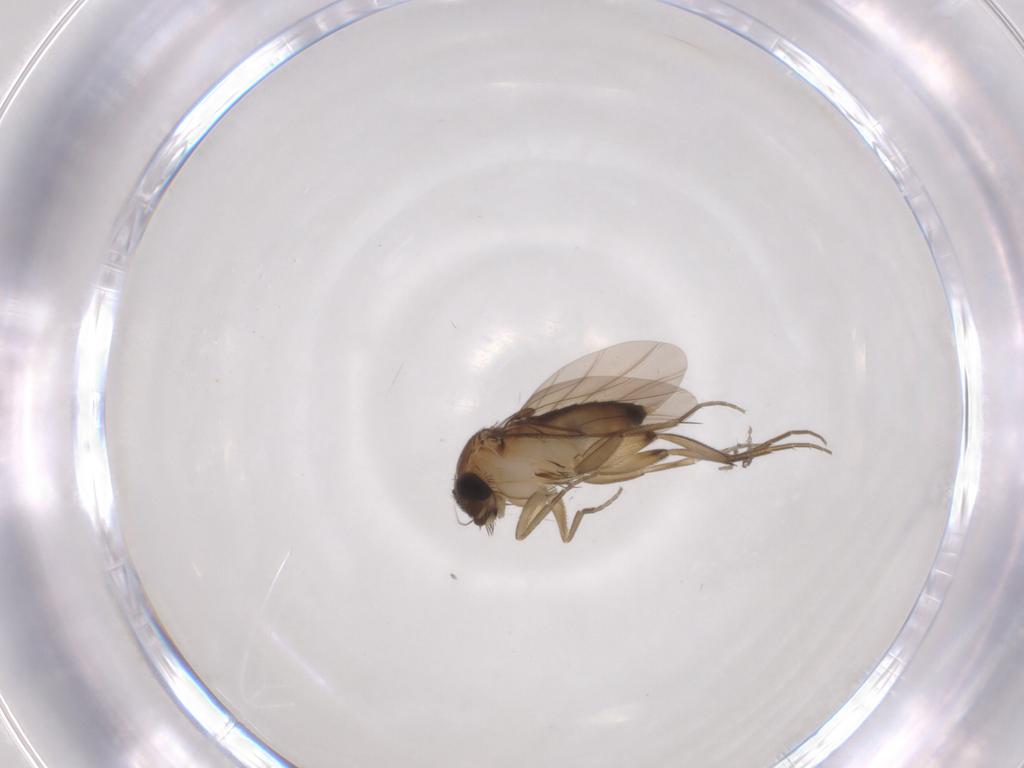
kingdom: Animalia
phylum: Arthropoda
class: Insecta
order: Diptera
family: Phoridae
